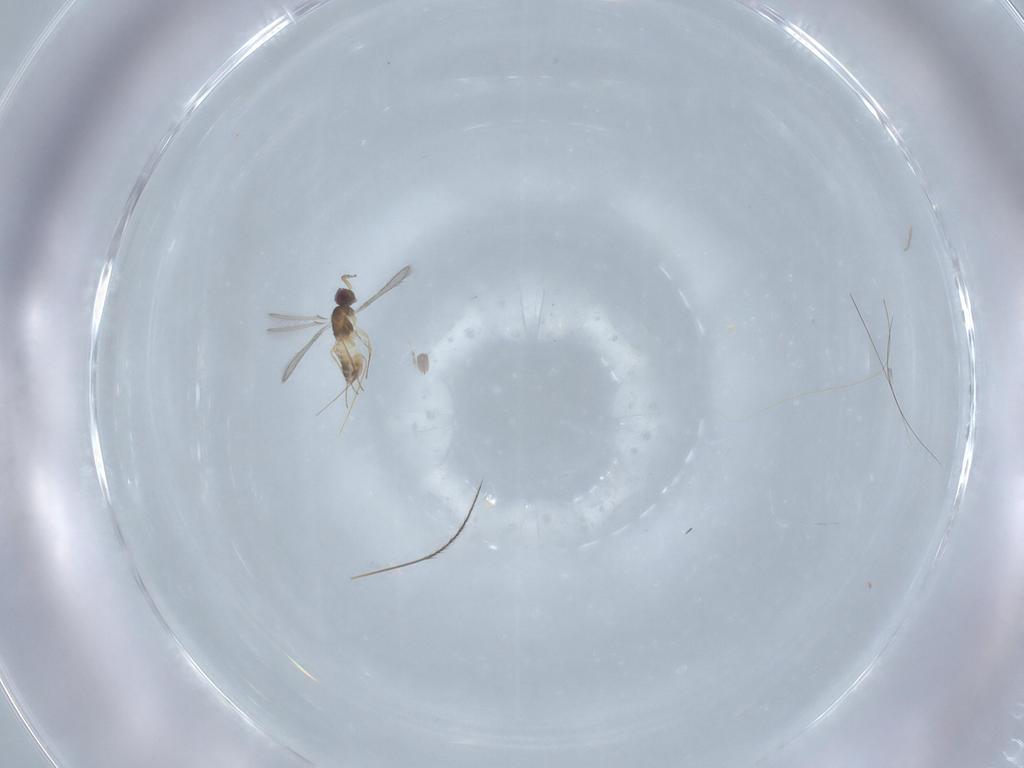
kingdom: Animalia
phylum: Arthropoda
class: Insecta
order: Hymenoptera
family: Mymaridae
